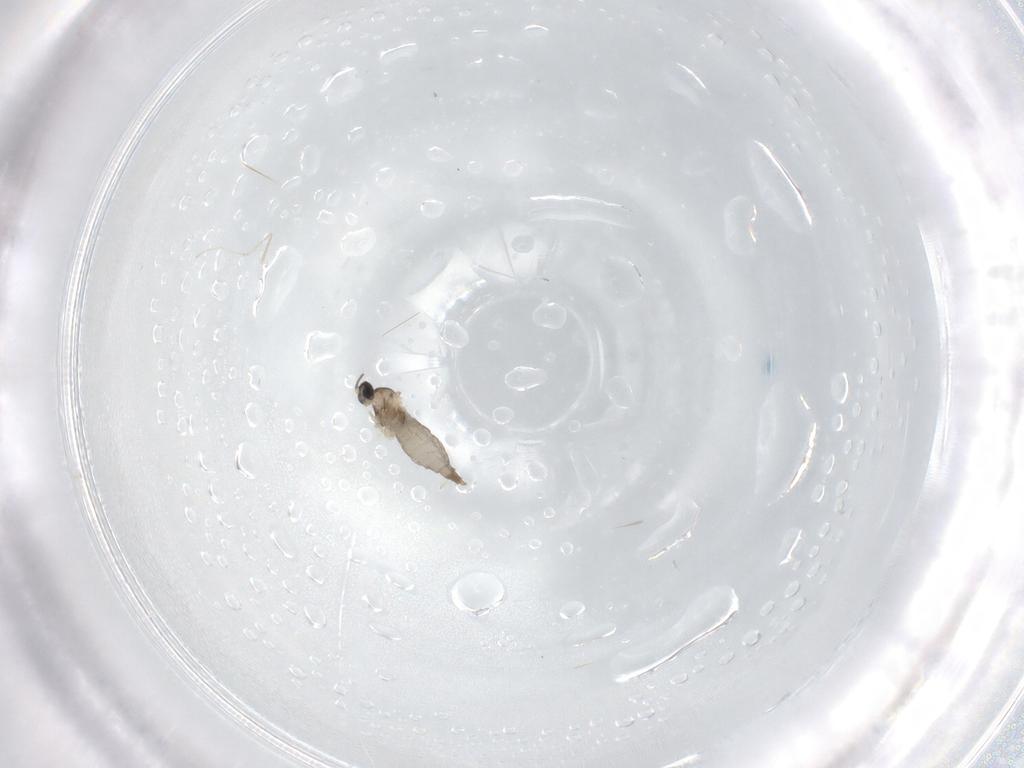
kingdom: Animalia
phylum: Arthropoda
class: Insecta
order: Diptera
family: Cecidomyiidae
